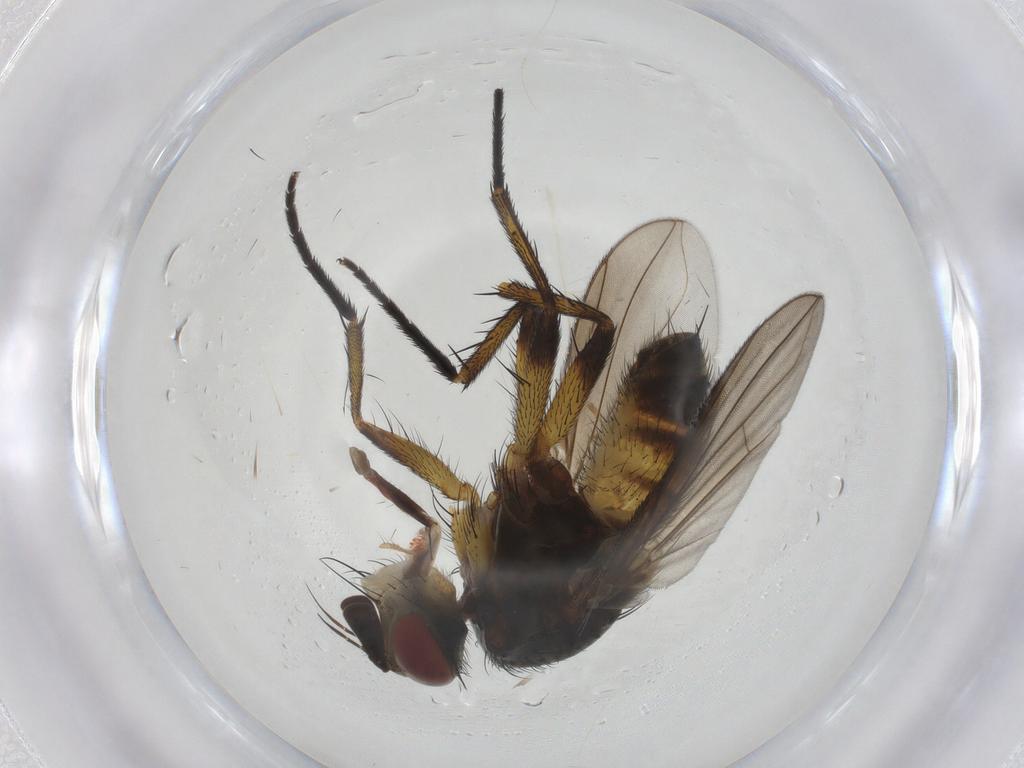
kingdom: Animalia
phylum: Arthropoda
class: Insecta
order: Diptera
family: Tachinidae
